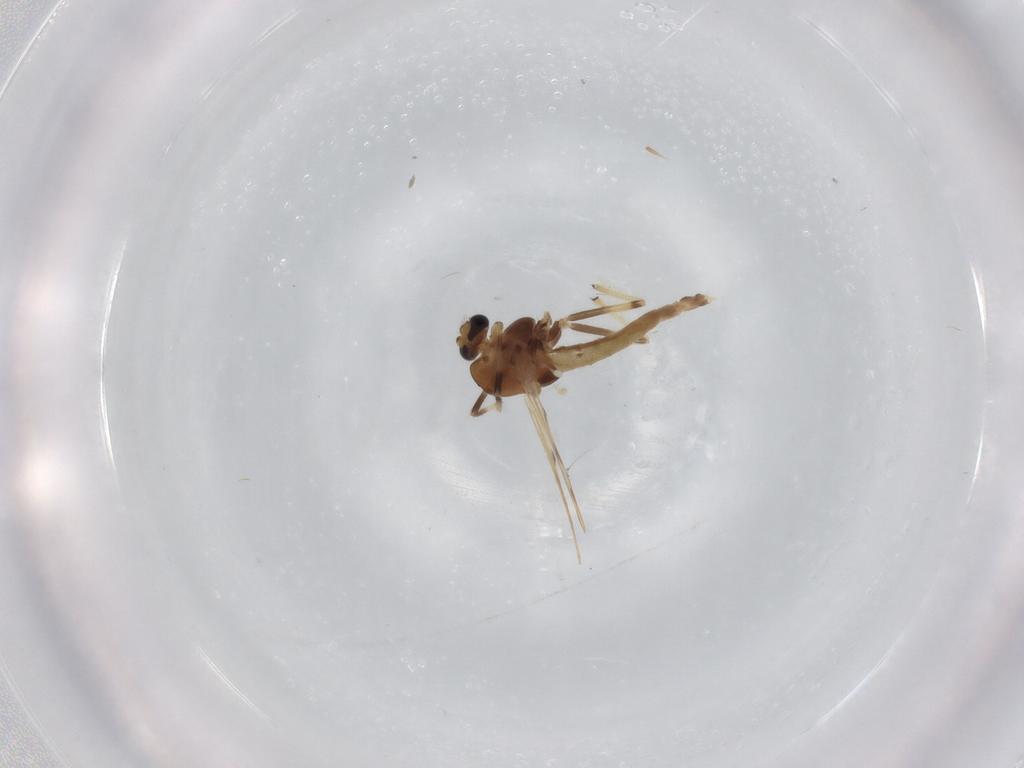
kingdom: Animalia
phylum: Arthropoda
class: Insecta
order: Diptera
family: Chironomidae
